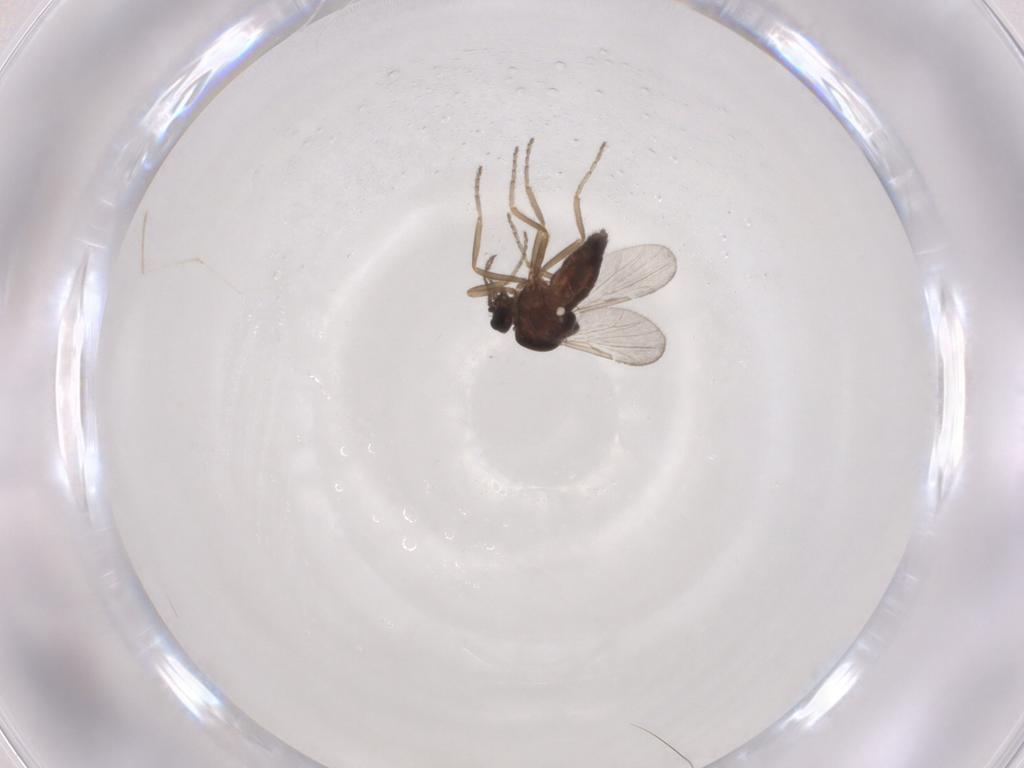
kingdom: Animalia
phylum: Arthropoda
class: Insecta
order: Diptera
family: Ceratopogonidae
